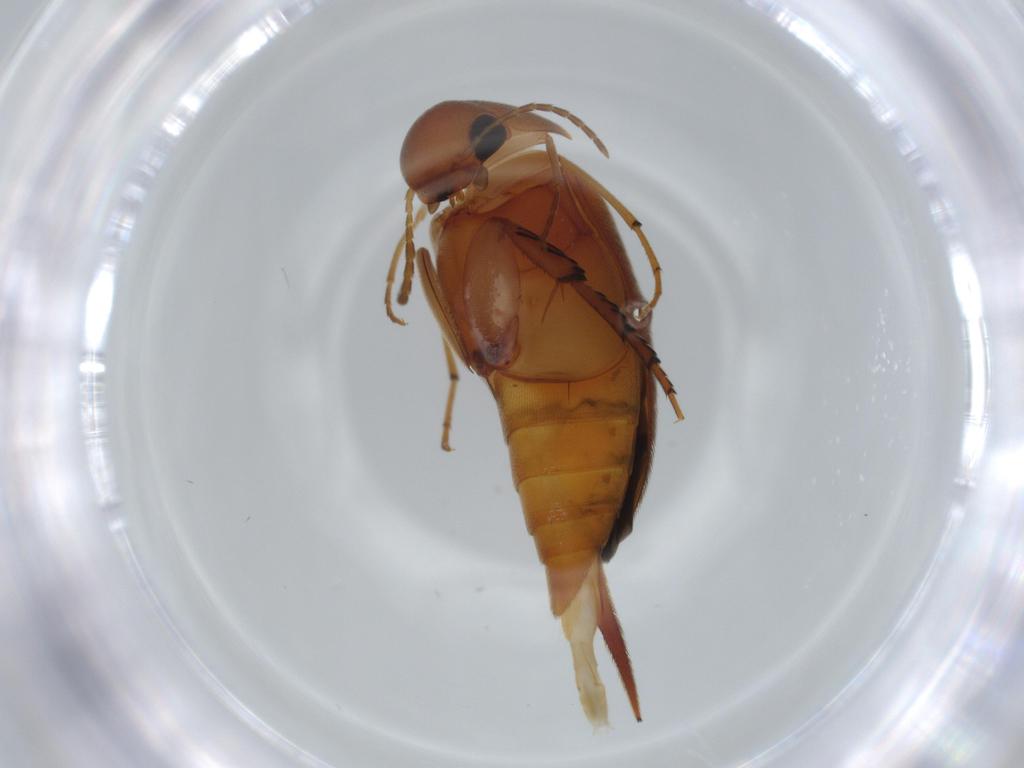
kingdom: Animalia
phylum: Arthropoda
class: Insecta
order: Coleoptera
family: Mordellidae
